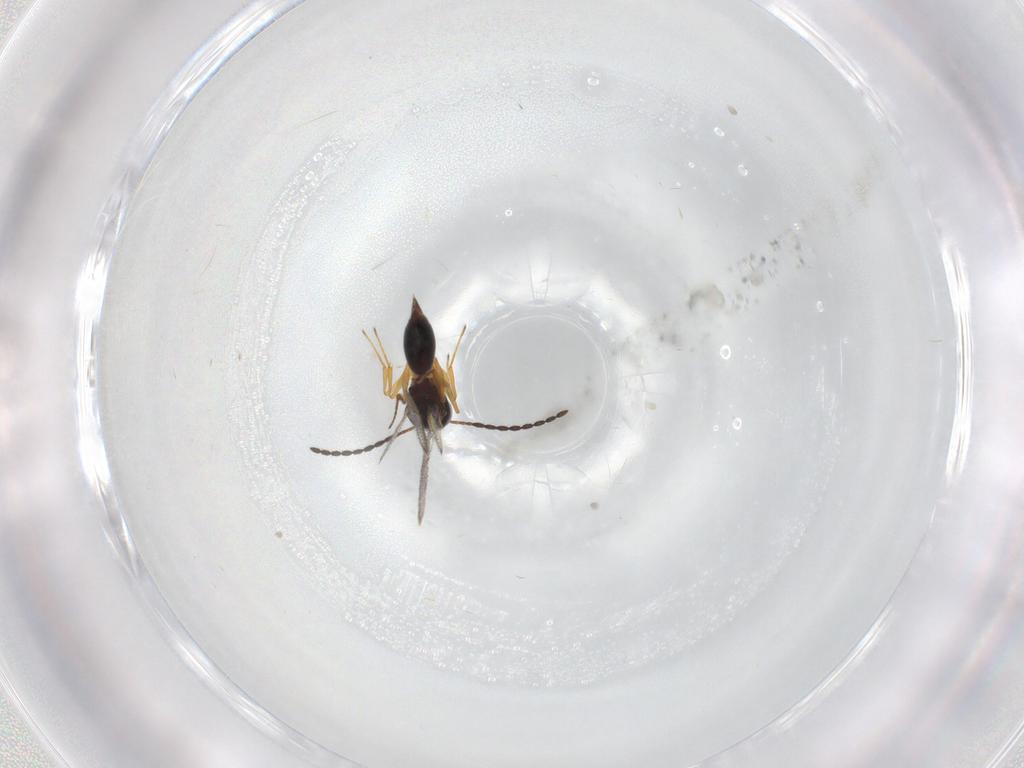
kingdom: Animalia
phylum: Arthropoda
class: Insecta
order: Hymenoptera
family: Figitidae
